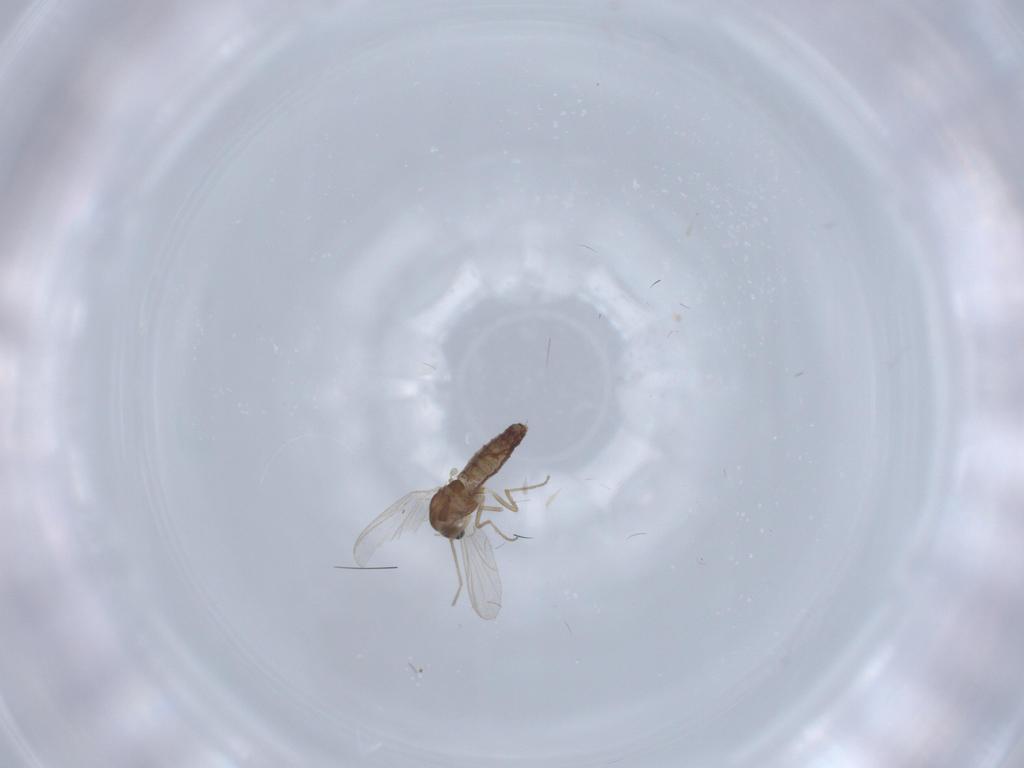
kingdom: Animalia
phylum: Arthropoda
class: Insecta
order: Diptera
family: Chironomidae
